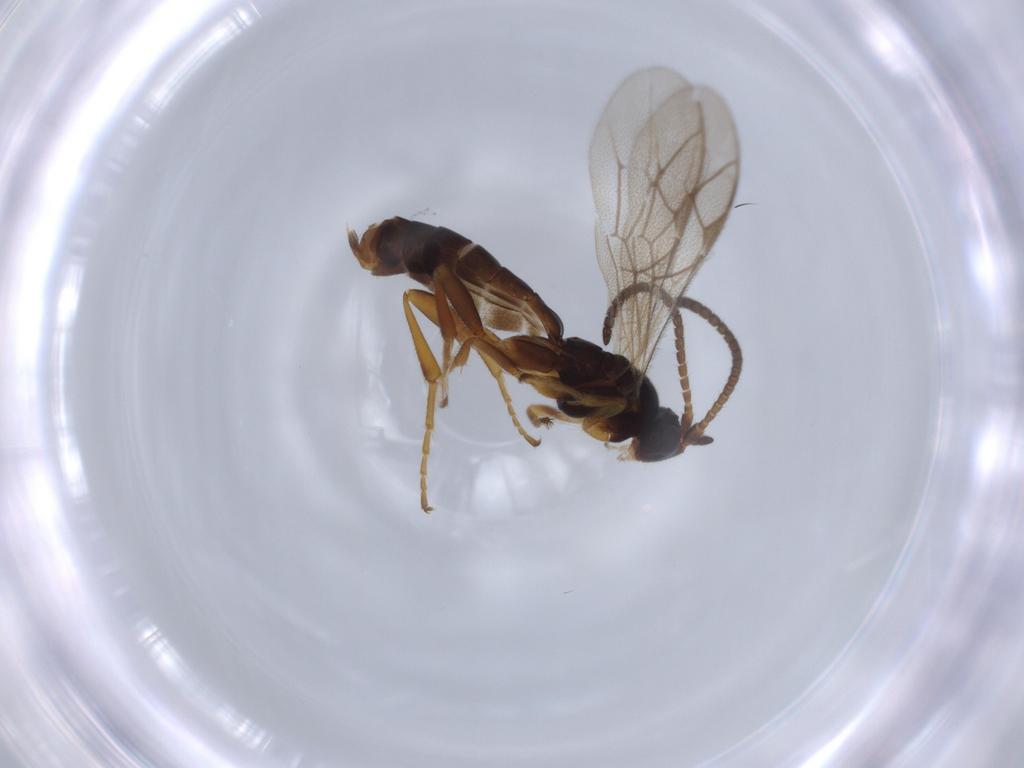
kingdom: Animalia
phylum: Arthropoda
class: Insecta
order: Hymenoptera
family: Ichneumonidae
